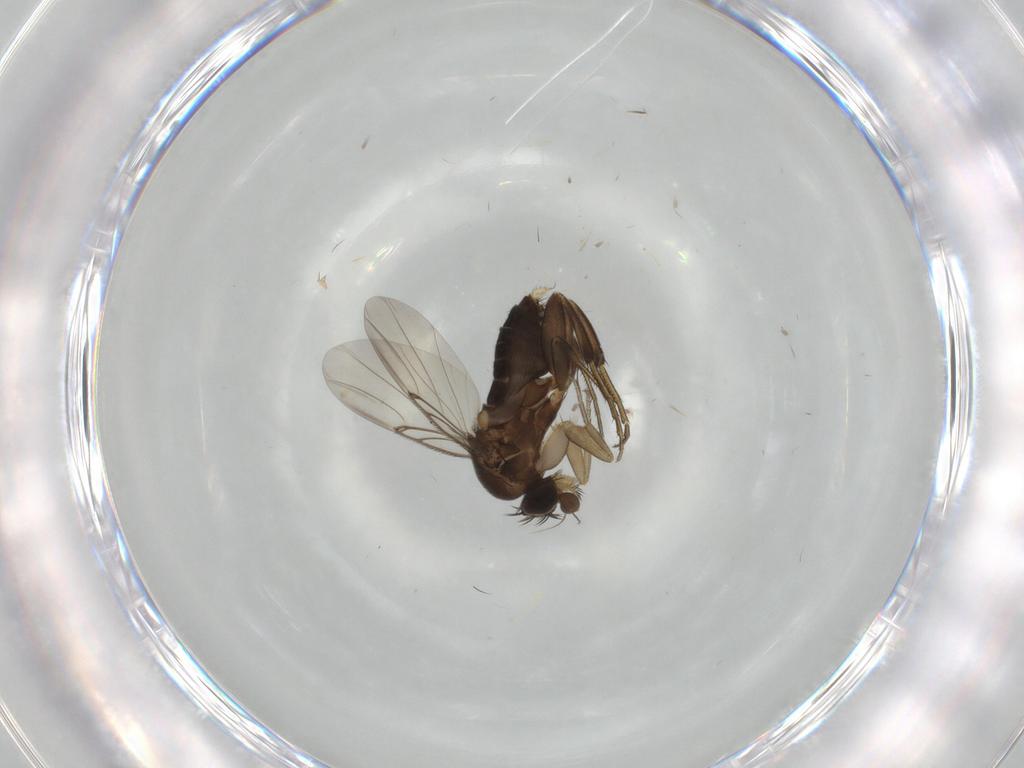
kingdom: Animalia
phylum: Arthropoda
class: Insecta
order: Diptera
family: Phoridae
